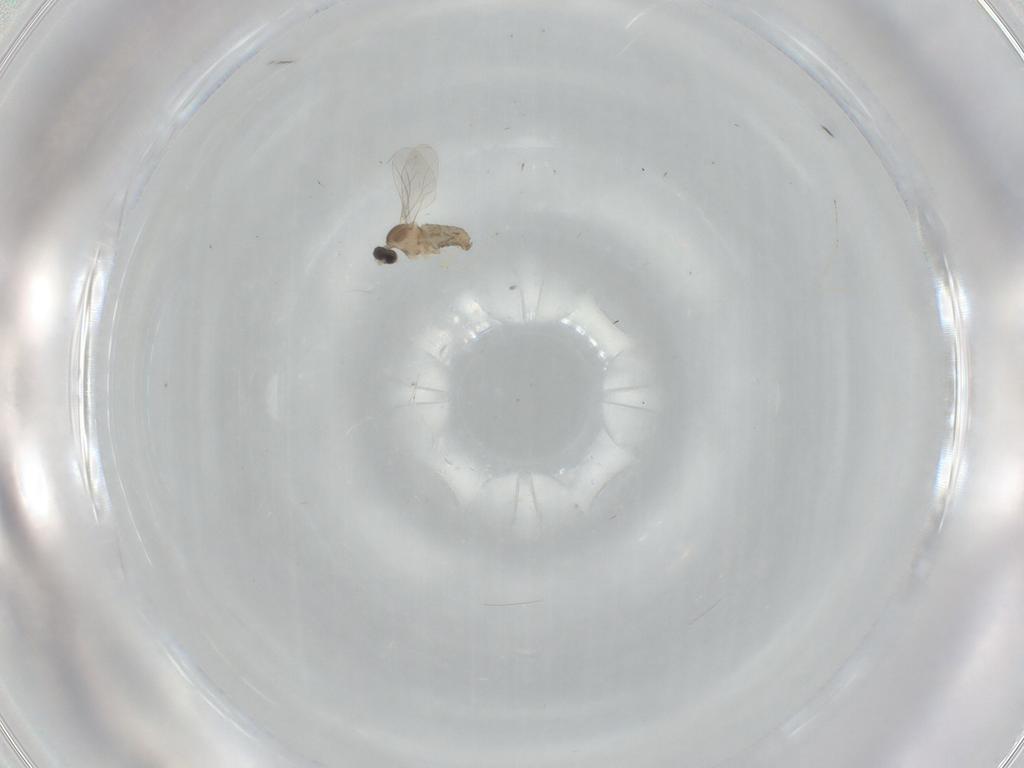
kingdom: Animalia
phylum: Arthropoda
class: Insecta
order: Diptera
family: Cecidomyiidae
